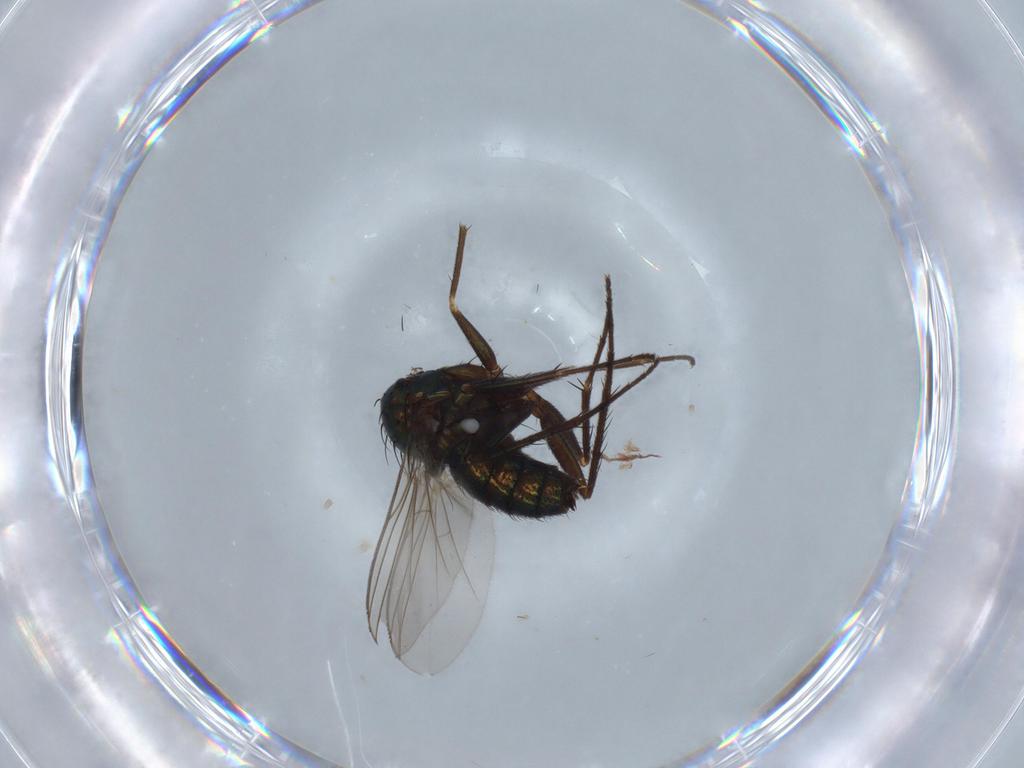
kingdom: Animalia
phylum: Arthropoda
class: Insecta
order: Diptera
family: Dolichopodidae
